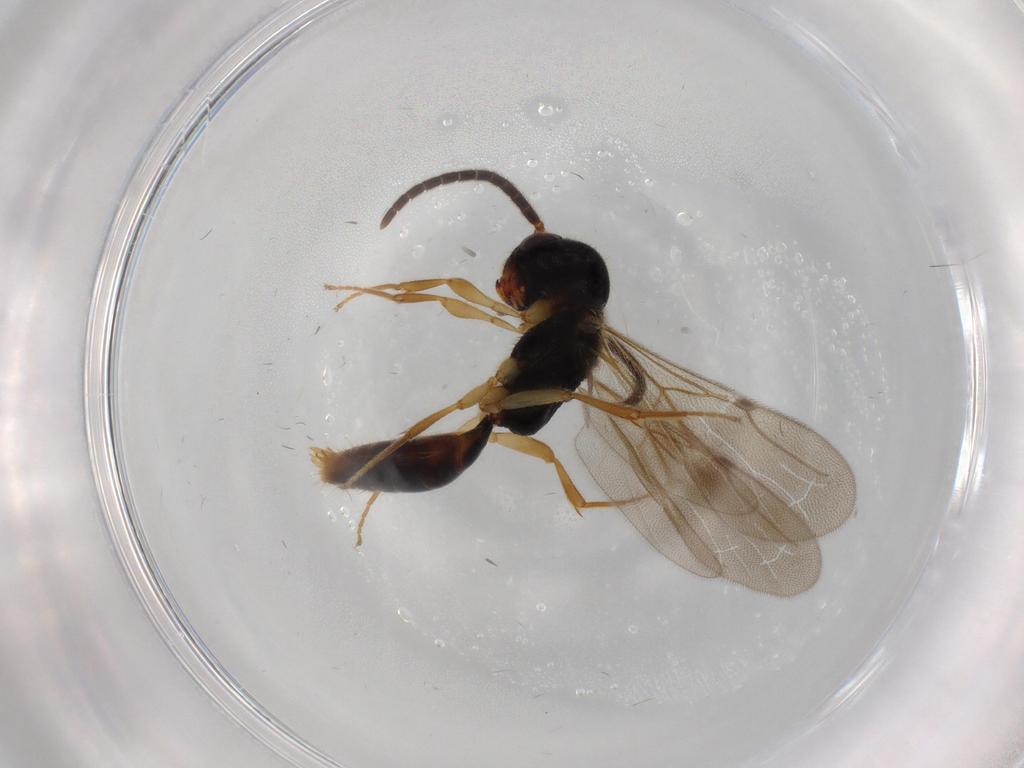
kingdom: Animalia
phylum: Arthropoda
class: Insecta
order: Hymenoptera
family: Bethylidae
